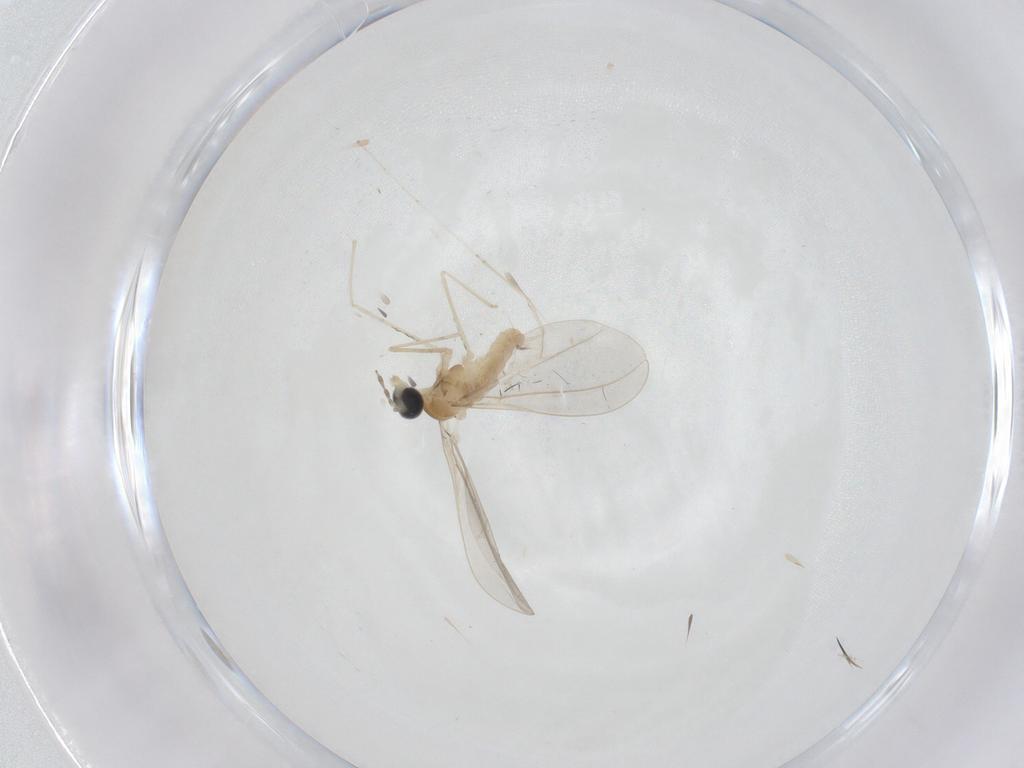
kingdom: Animalia
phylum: Arthropoda
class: Insecta
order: Diptera
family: Cecidomyiidae
